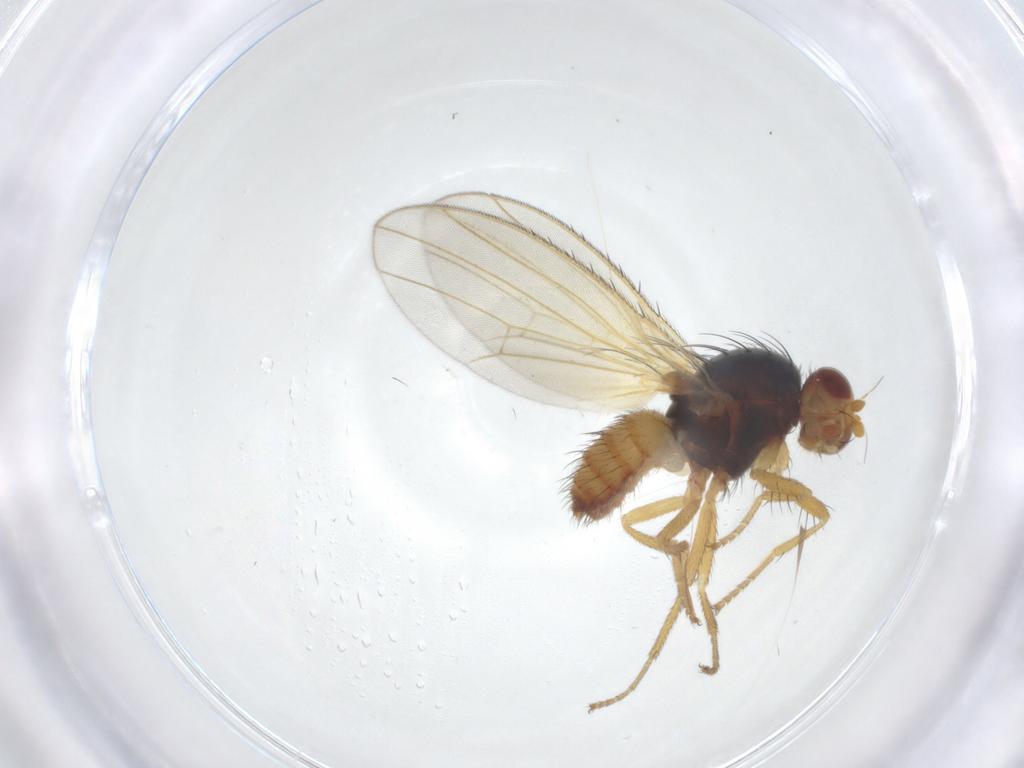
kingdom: Animalia
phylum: Arthropoda
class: Insecta
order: Diptera
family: Heleomyzidae
